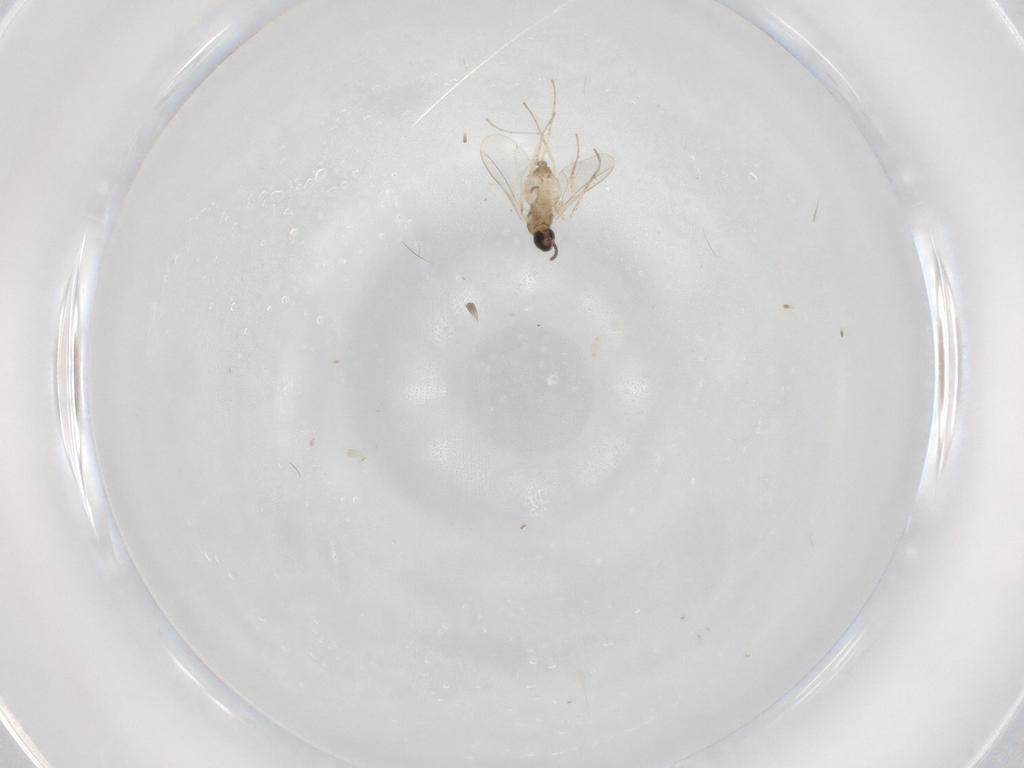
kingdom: Animalia
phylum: Arthropoda
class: Insecta
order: Diptera
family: Cecidomyiidae
